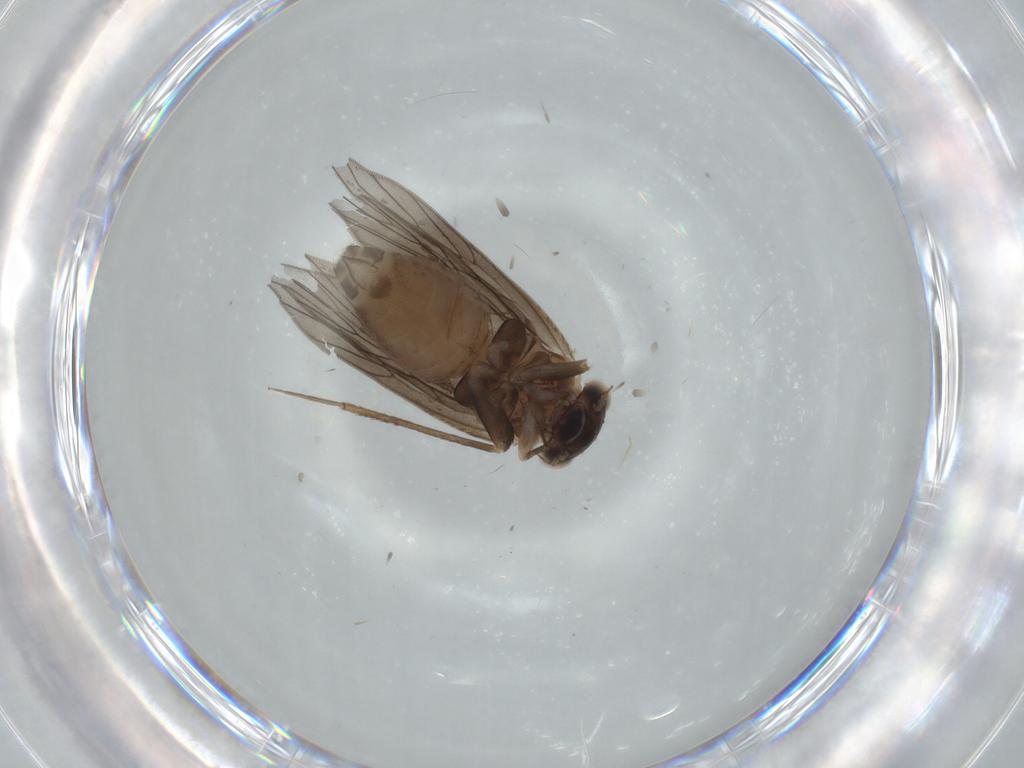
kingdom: Animalia
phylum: Arthropoda
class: Insecta
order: Psocodea
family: Lepidopsocidae
